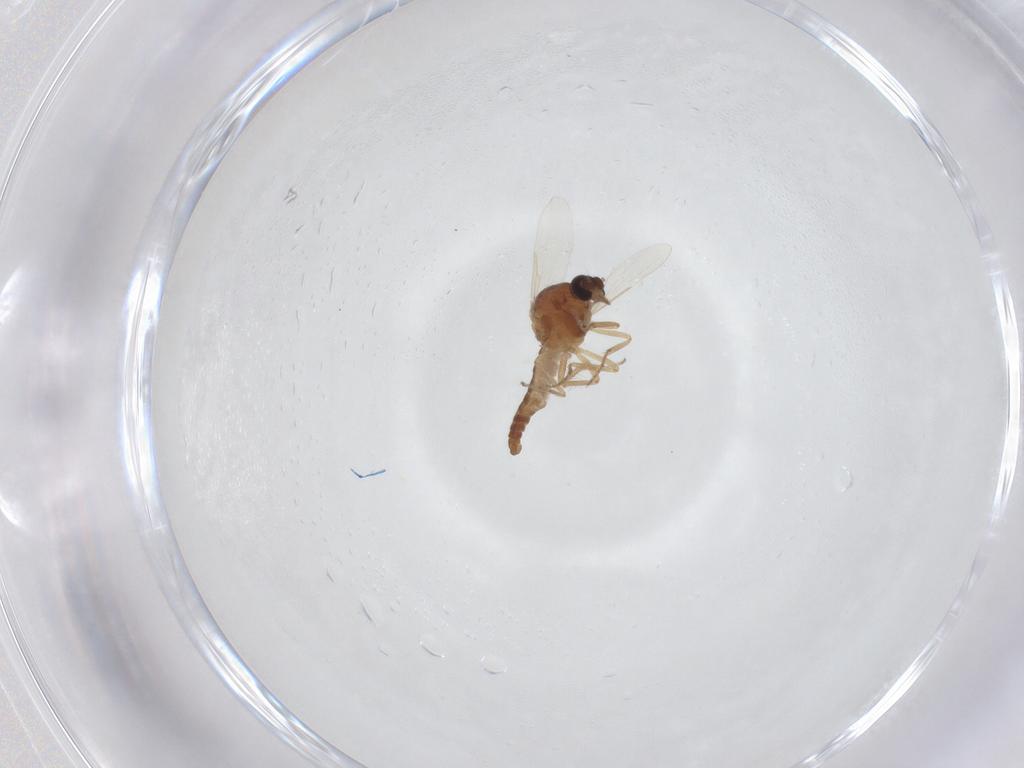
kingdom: Animalia
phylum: Arthropoda
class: Insecta
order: Diptera
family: Ceratopogonidae
